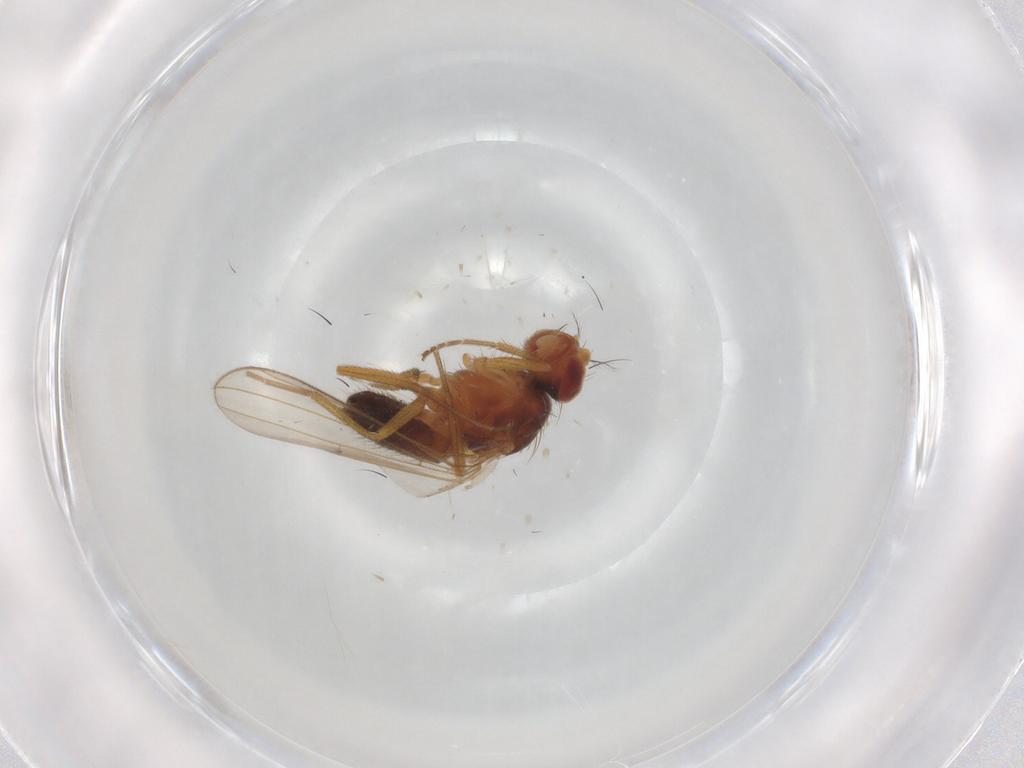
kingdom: Animalia
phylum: Arthropoda
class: Insecta
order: Diptera
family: Drosophilidae
